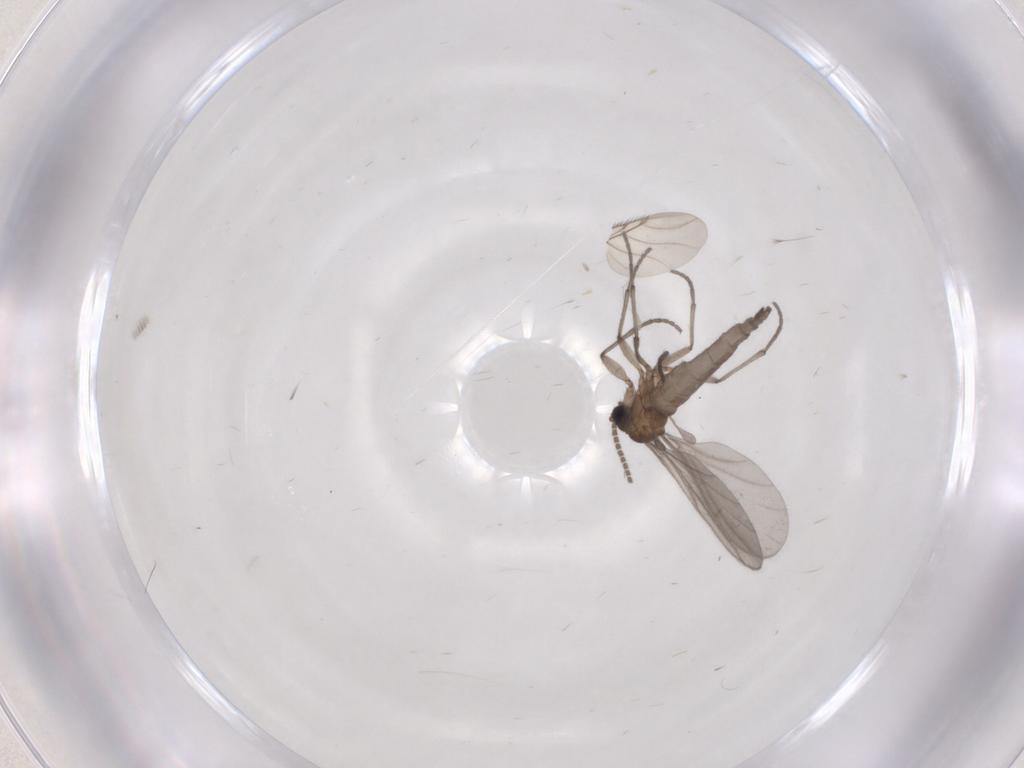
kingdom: Animalia
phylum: Arthropoda
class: Insecta
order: Diptera
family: Sciaridae
